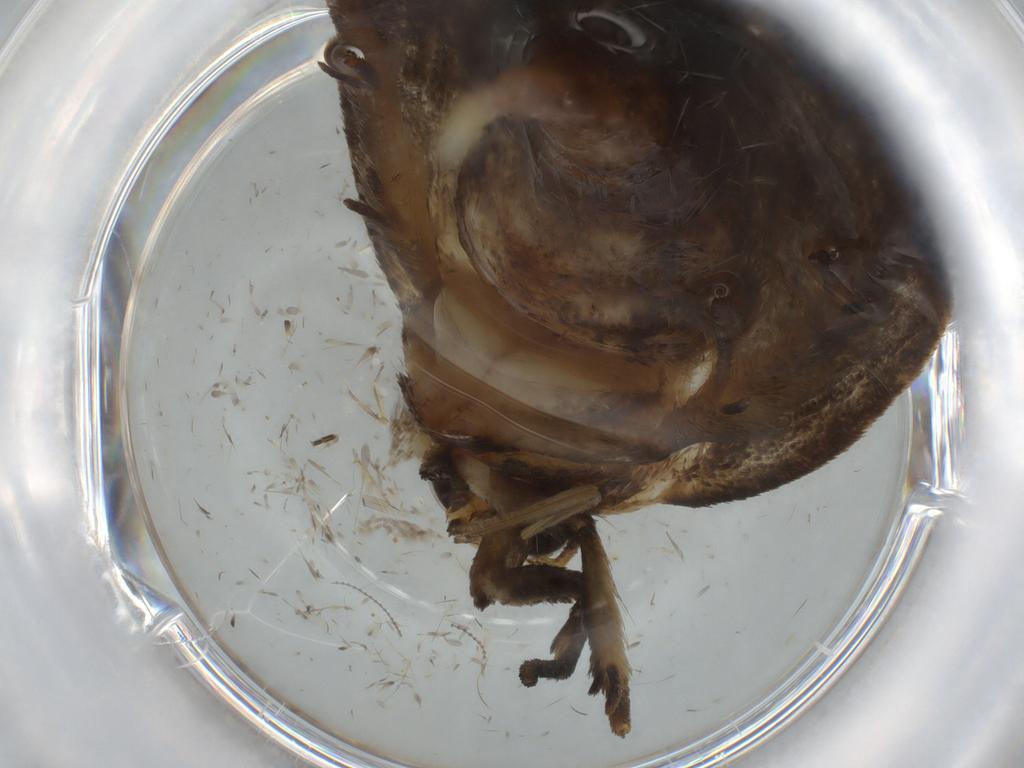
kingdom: Animalia
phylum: Arthropoda
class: Insecta
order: Lepidoptera
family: Oecophoridae
